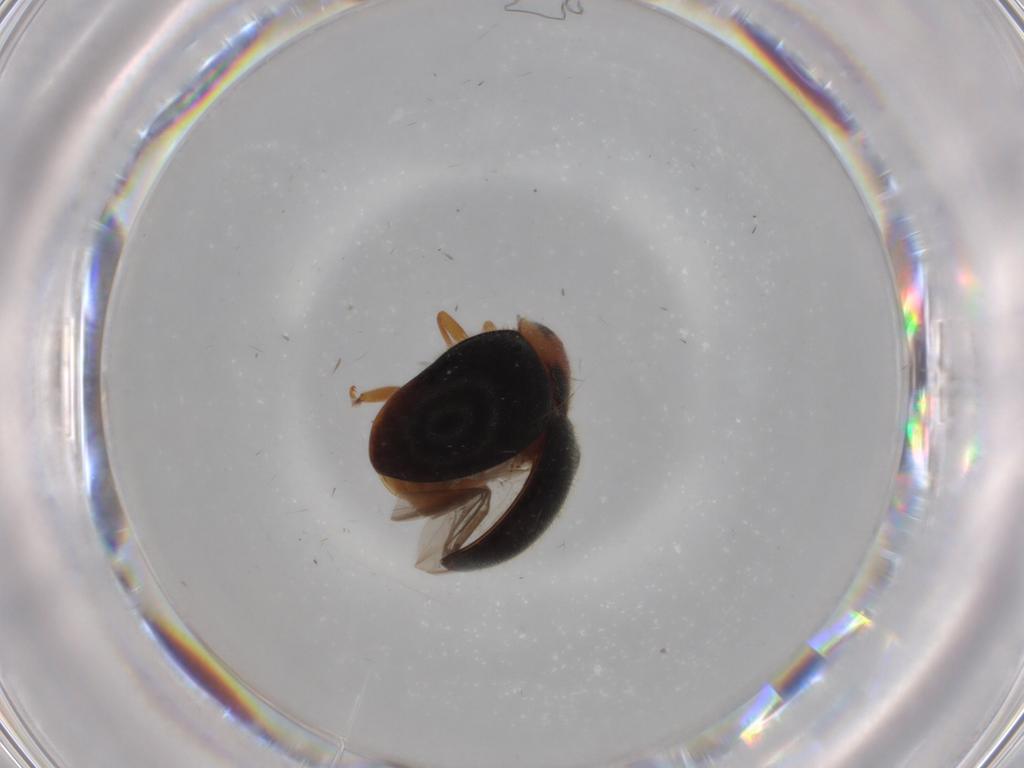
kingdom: Animalia
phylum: Arthropoda
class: Insecta
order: Coleoptera
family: Coccinellidae
